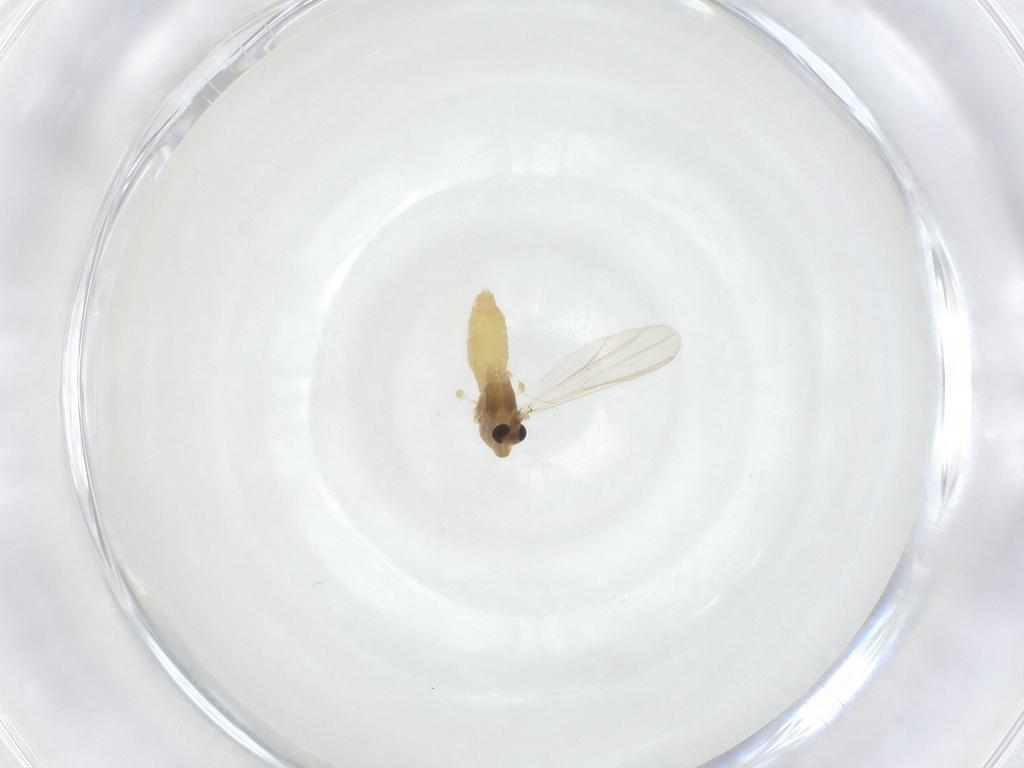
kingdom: Animalia
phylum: Arthropoda
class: Insecta
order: Diptera
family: Chironomidae
